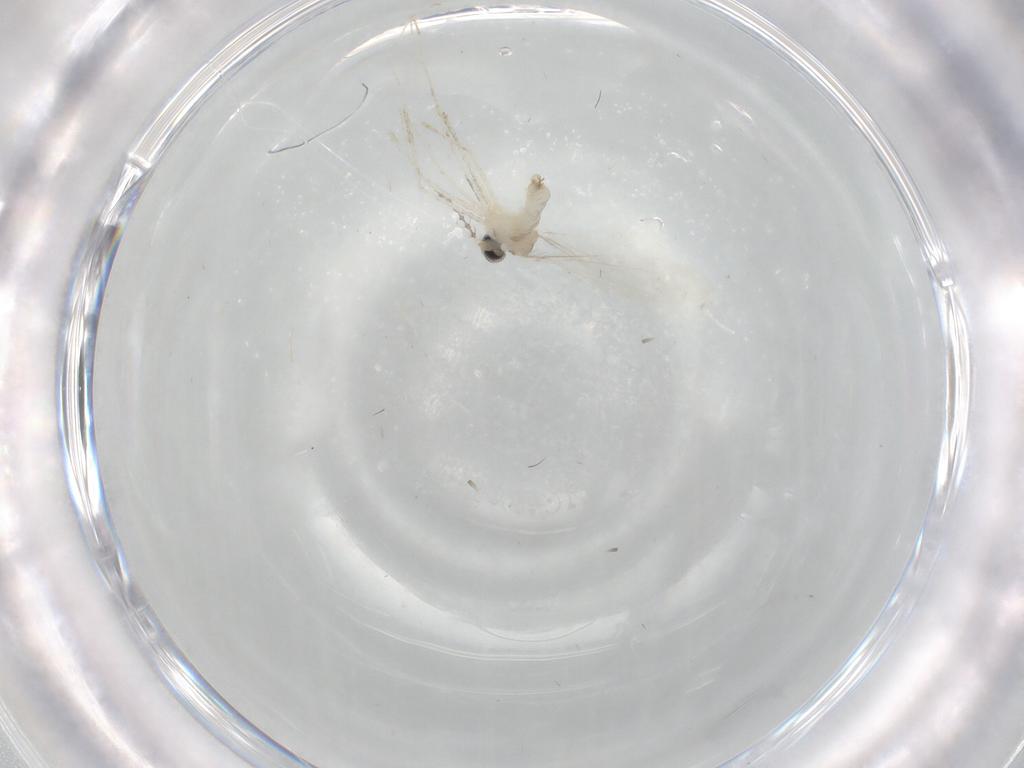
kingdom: Animalia
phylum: Arthropoda
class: Insecta
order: Diptera
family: Cecidomyiidae
